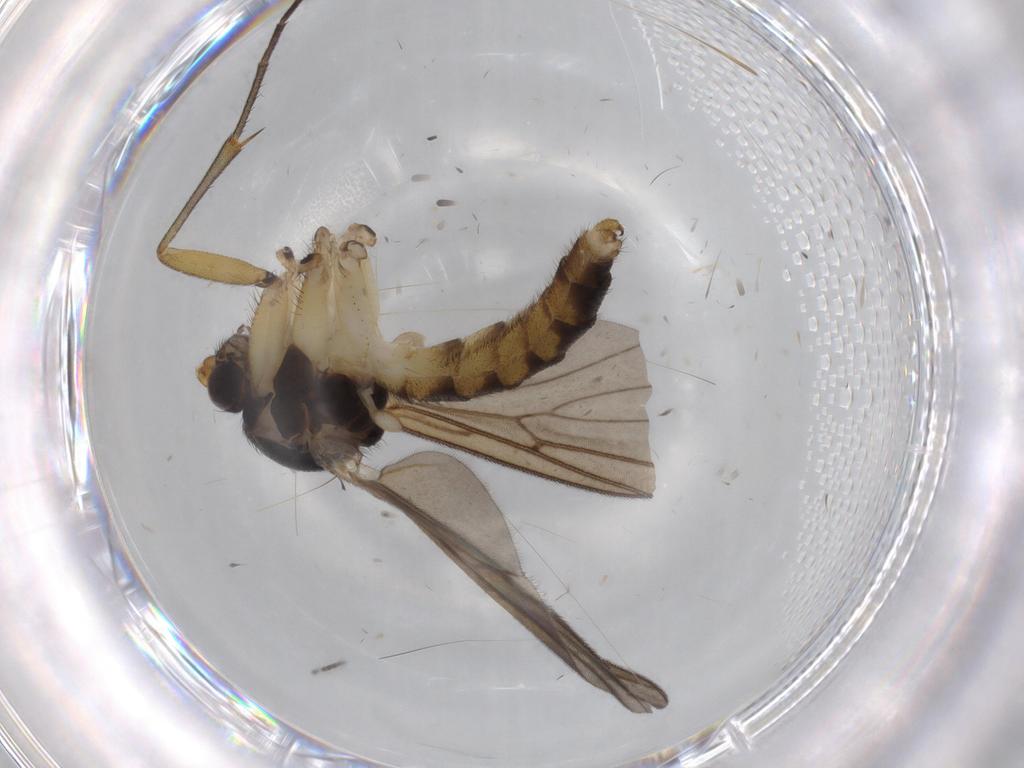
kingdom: Animalia
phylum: Arthropoda
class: Insecta
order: Diptera
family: Cecidomyiidae
